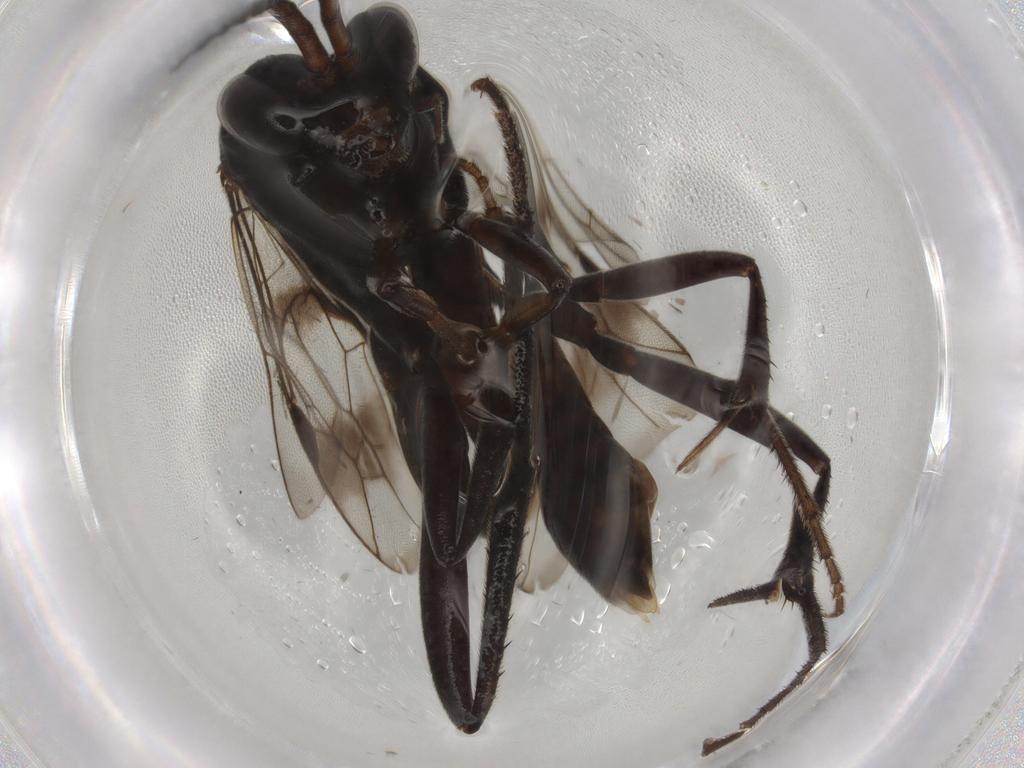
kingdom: Animalia
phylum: Arthropoda
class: Insecta
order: Hymenoptera
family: Pompilidae
